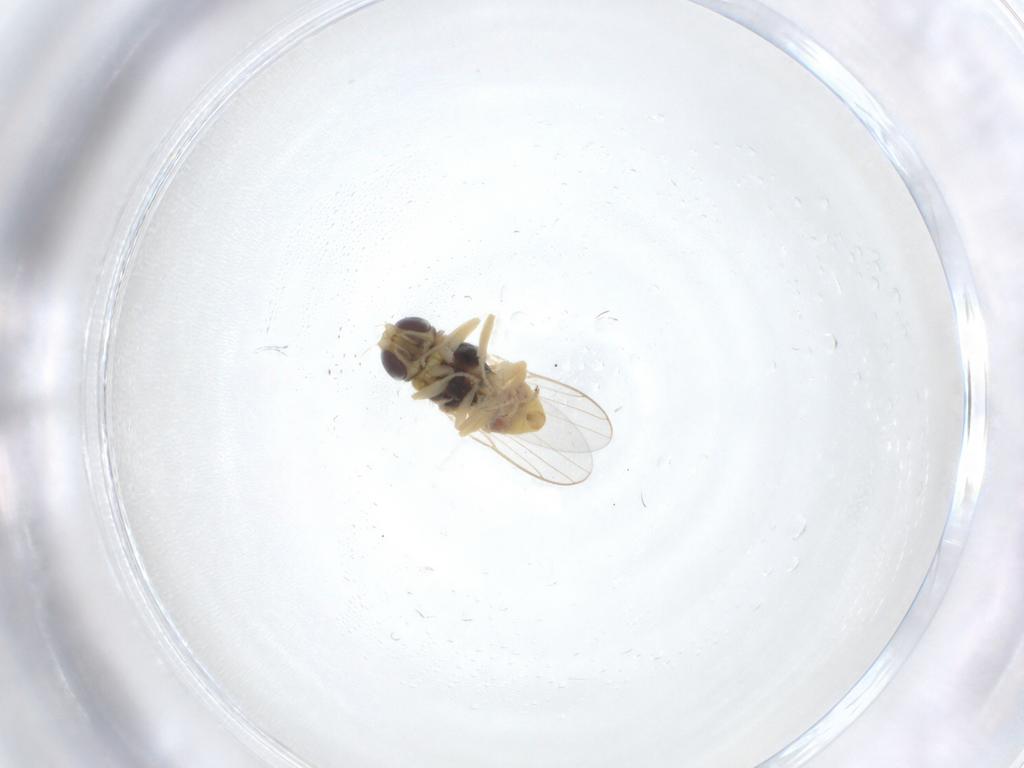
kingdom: Animalia
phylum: Arthropoda
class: Insecta
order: Diptera
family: Chloropidae
